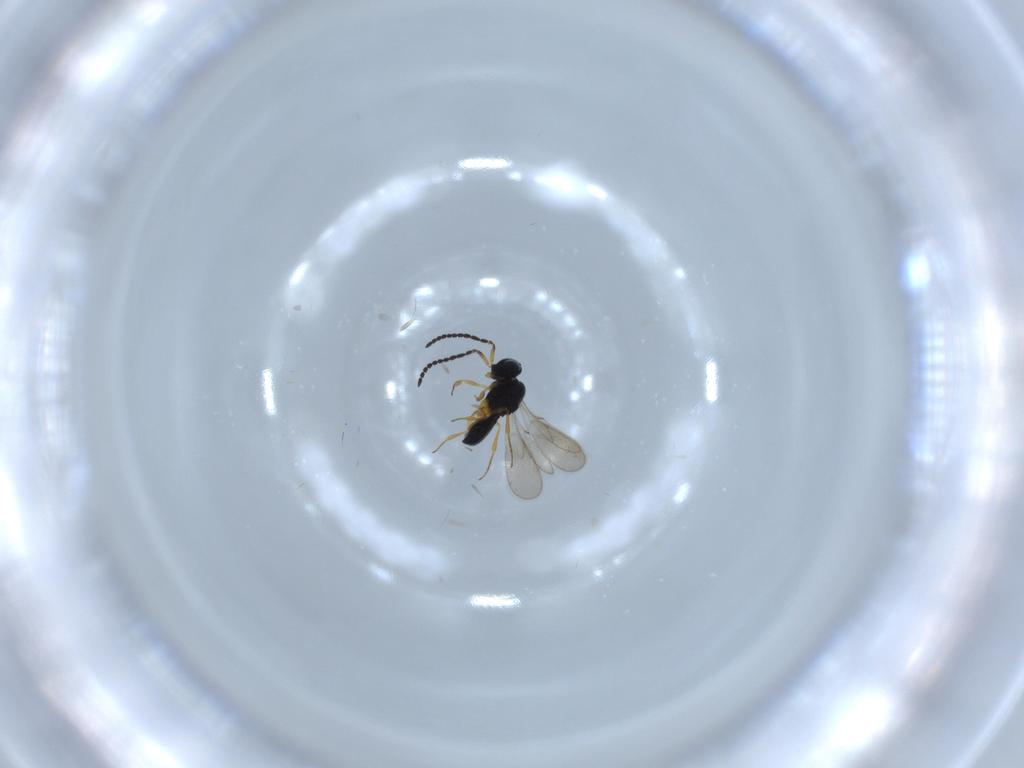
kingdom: Animalia
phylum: Arthropoda
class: Insecta
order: Hymenoptera
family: Scelionidae
